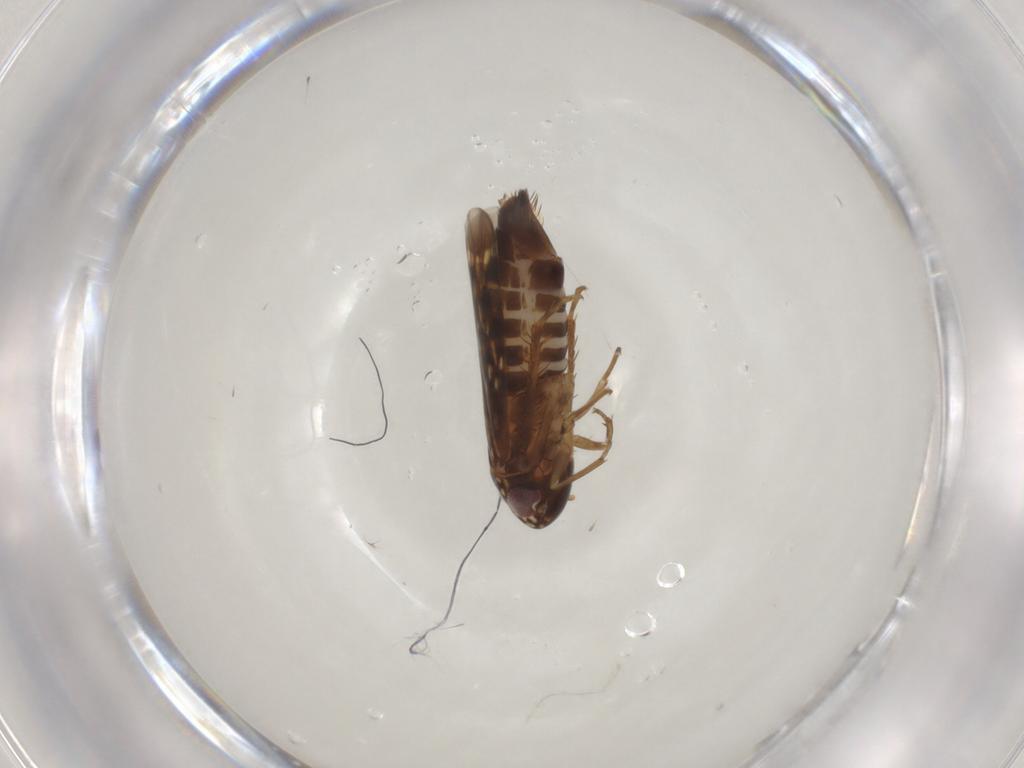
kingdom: Animalia
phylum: Arthropoda
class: Insecta
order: Hemiptera
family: Cicadellidae
